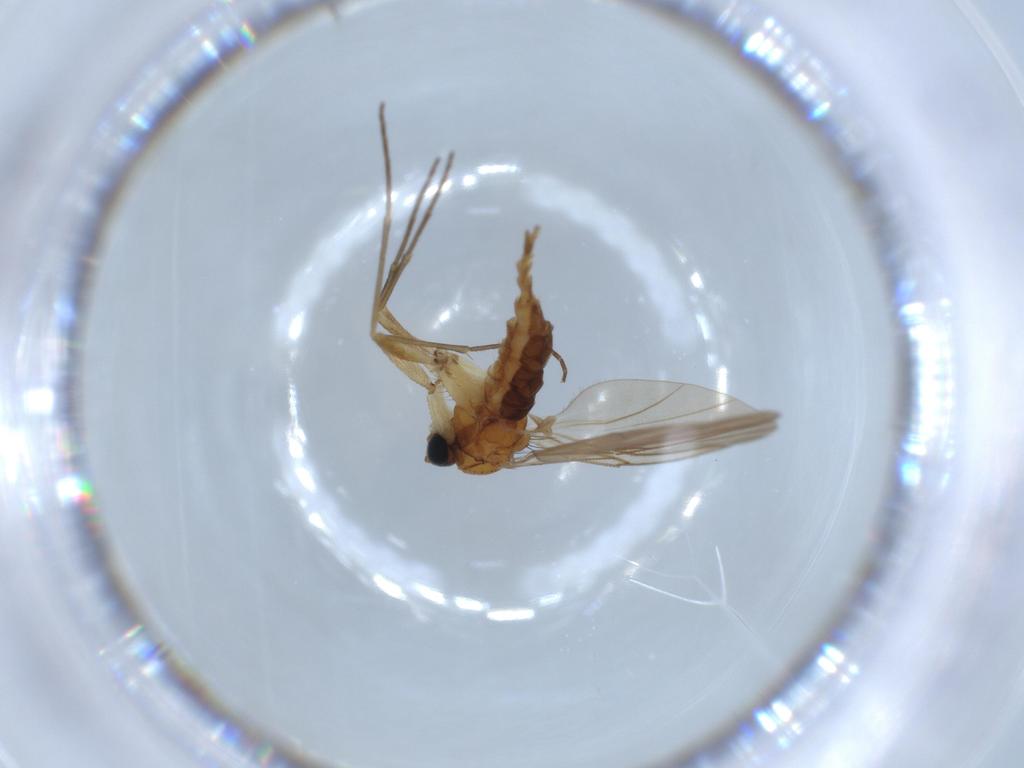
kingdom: Animalia
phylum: Arthropoda
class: Insecta
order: Diptera
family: Sciaridae
